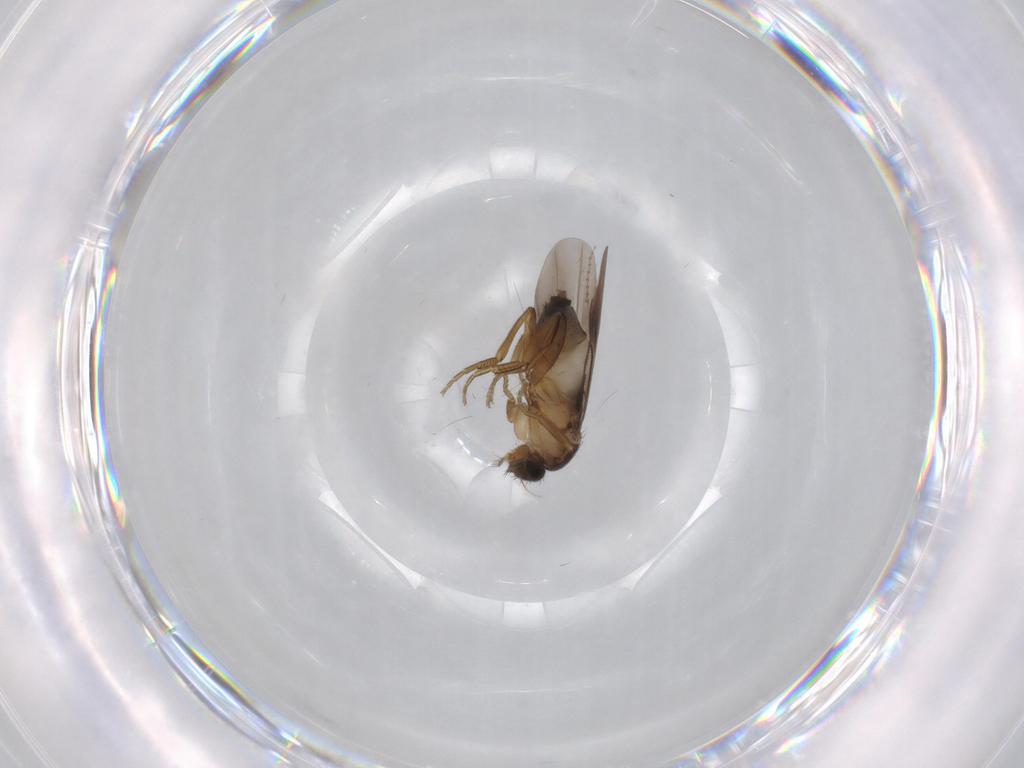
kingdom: Animalia
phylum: Arthropoda
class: Insecta
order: Diptera
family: Cecidomyiidae
